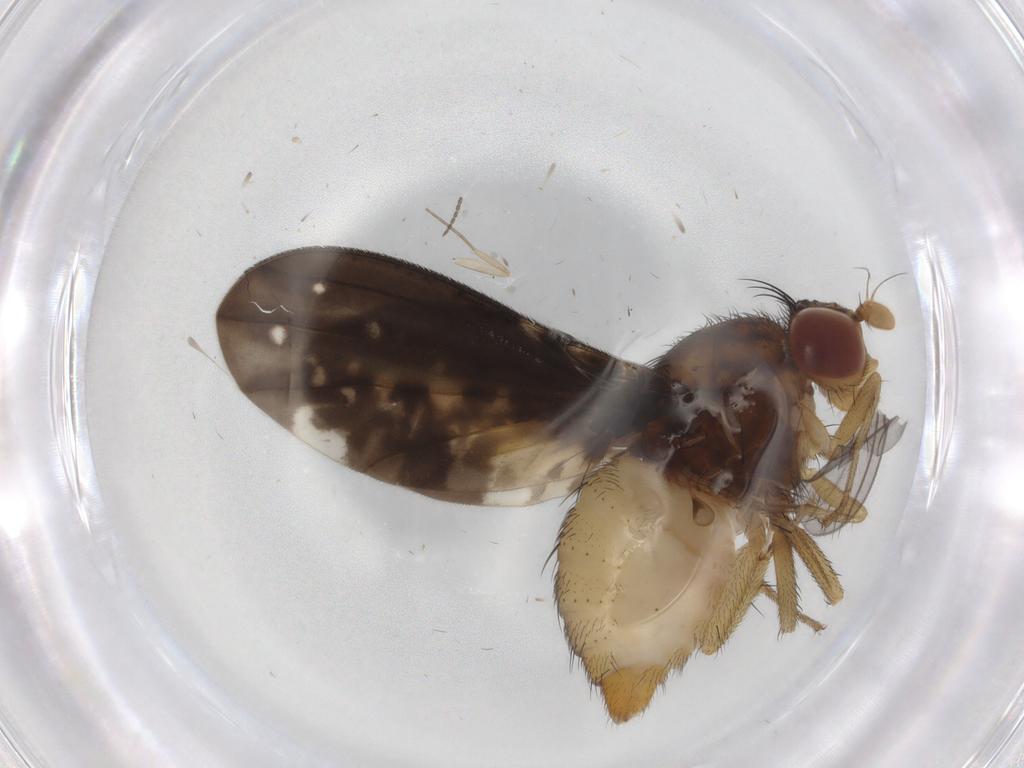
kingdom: Animalia
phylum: Arthropoda
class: Insecta
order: Diptera
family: Lauxaniidae
